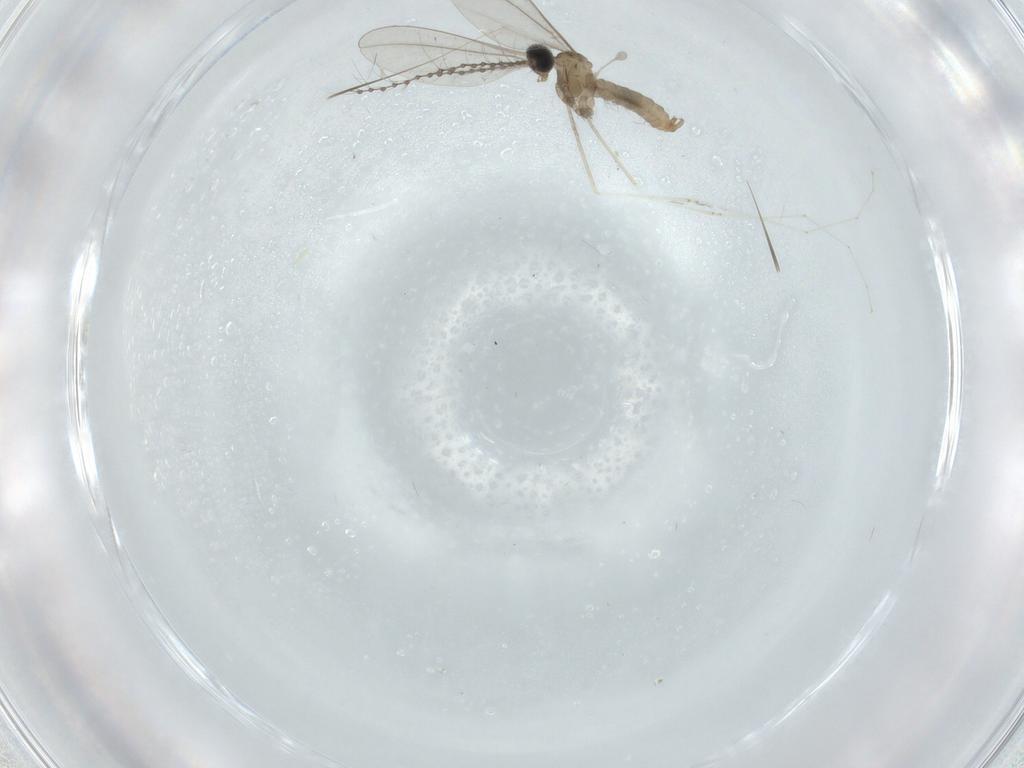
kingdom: Animalia
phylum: Arthropoda
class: Insecta
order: Diptera
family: Cecidomyiidae
